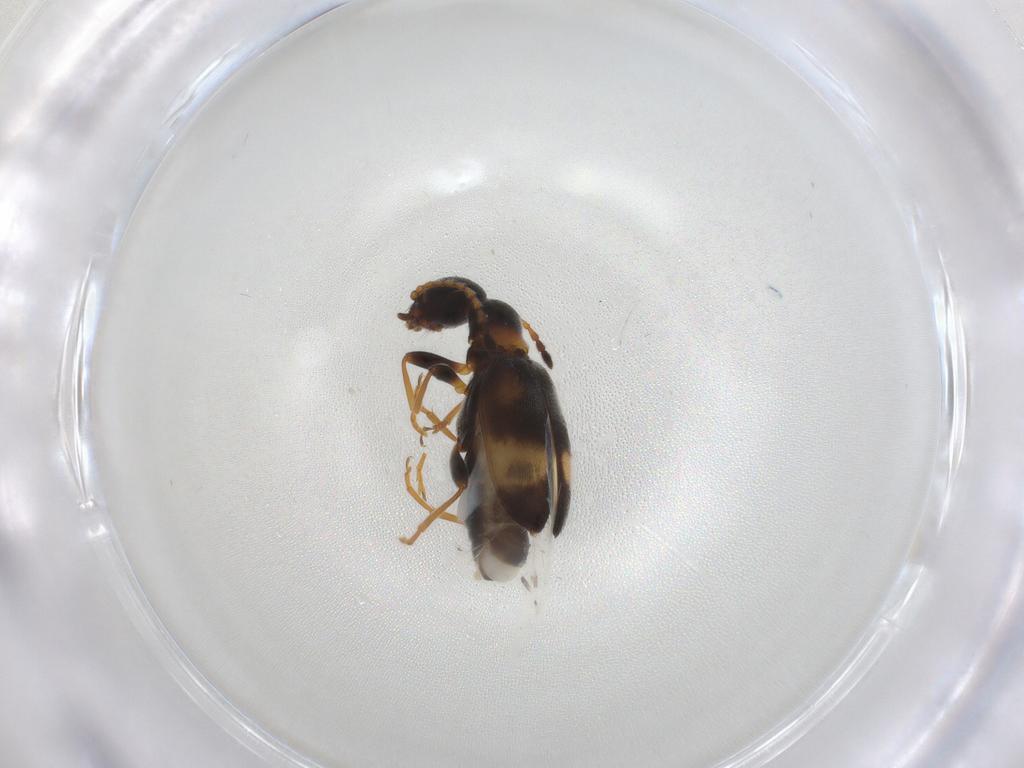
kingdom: Animalia
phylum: Arthropoda
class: Insecta
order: Coleoptera
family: Anthicidae
